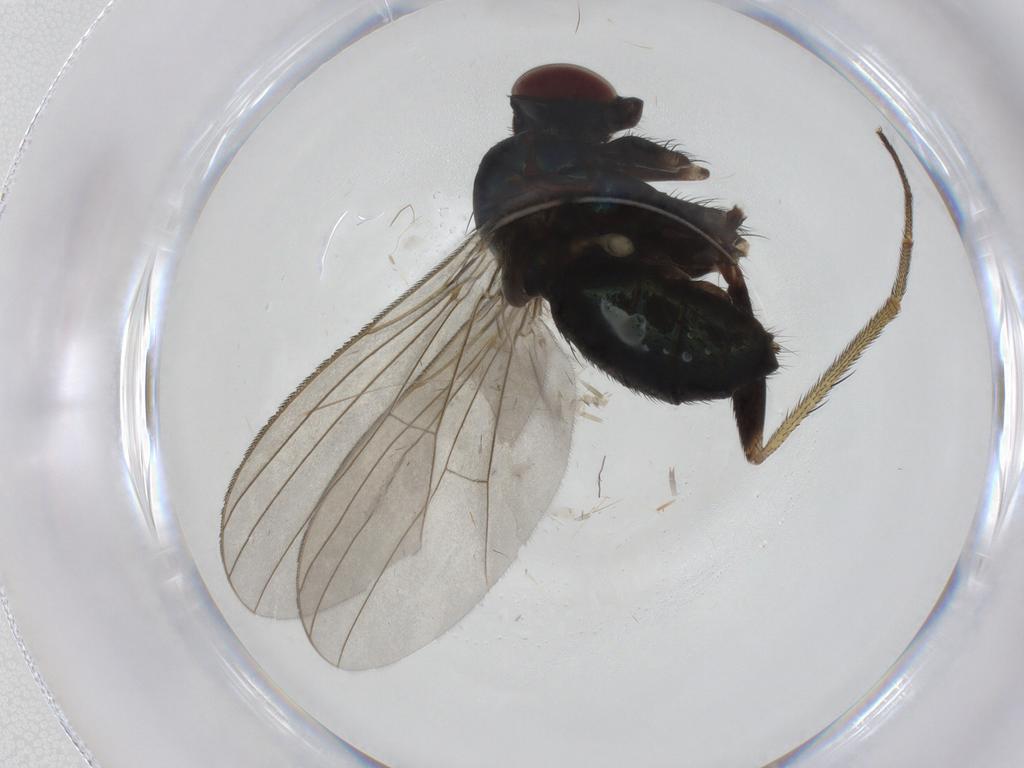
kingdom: Animalia
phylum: Arthropoda
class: Insecta
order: Diptera
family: Dolichopodidae
